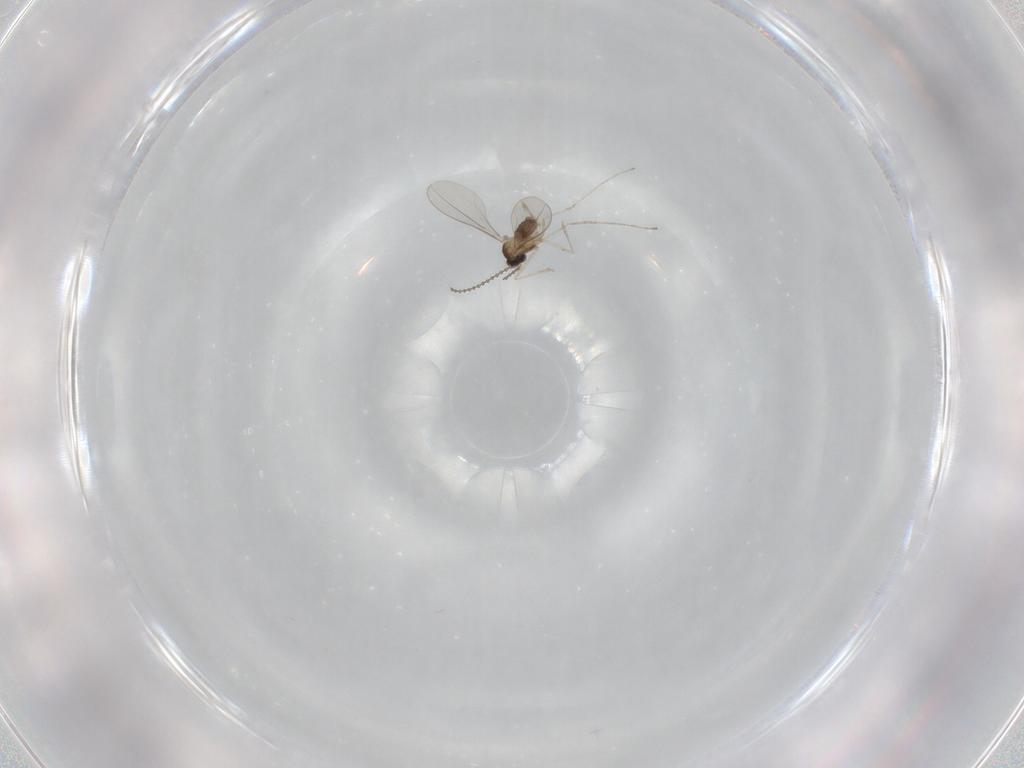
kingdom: Animalia
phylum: Arthropoda
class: Insecta
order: Diptera
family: Cecidomyiidae
